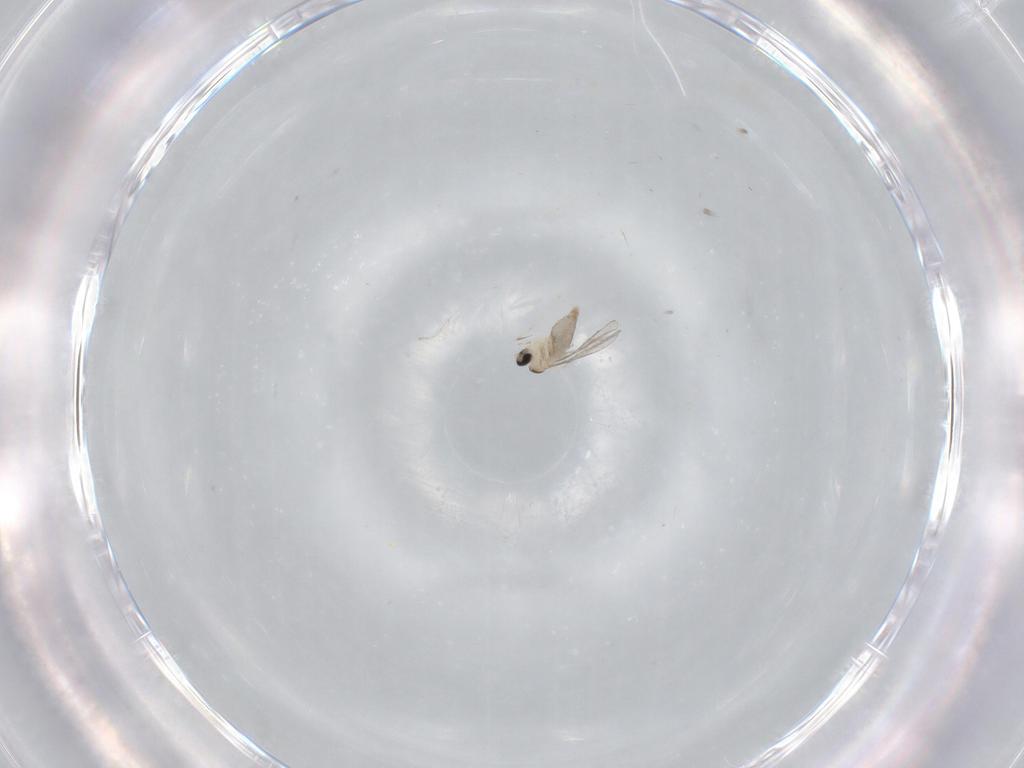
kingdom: Animalia
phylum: Arthropoda
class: Insecta
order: Diptera
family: Cecidomyiidae
